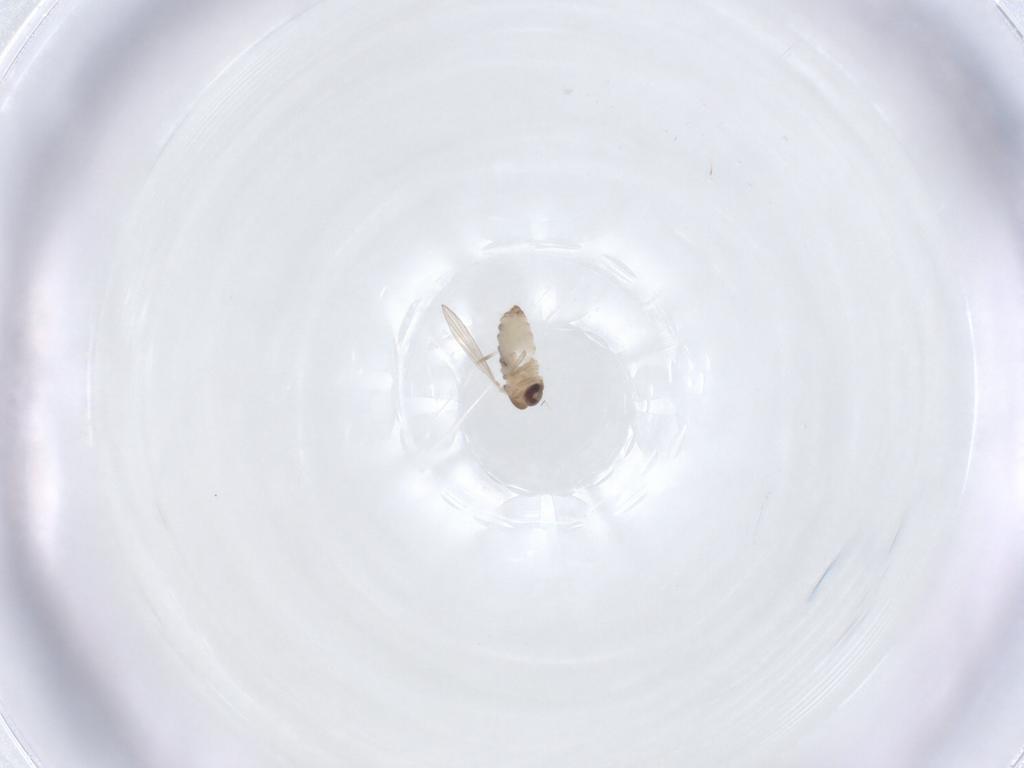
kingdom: Animalia
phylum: Arthropoda
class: Insecta
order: Diptera
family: Psychodidae
